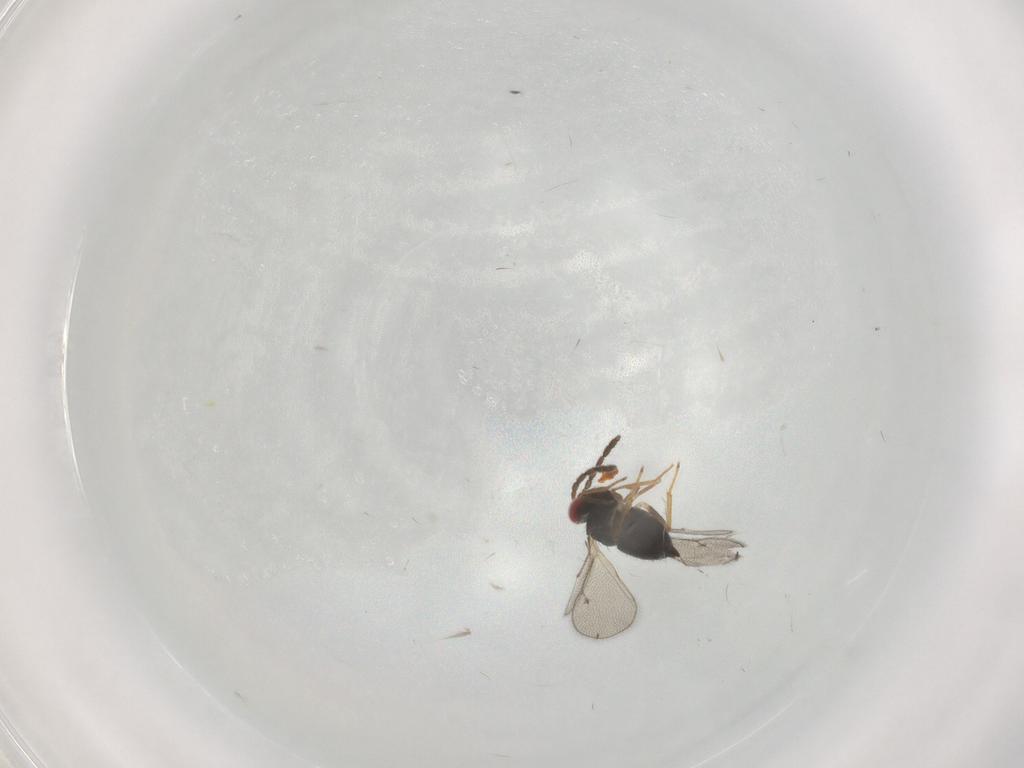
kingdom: Animalia
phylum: Arthropoda
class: Insecta
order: Hymenoptera
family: Eulophidae
